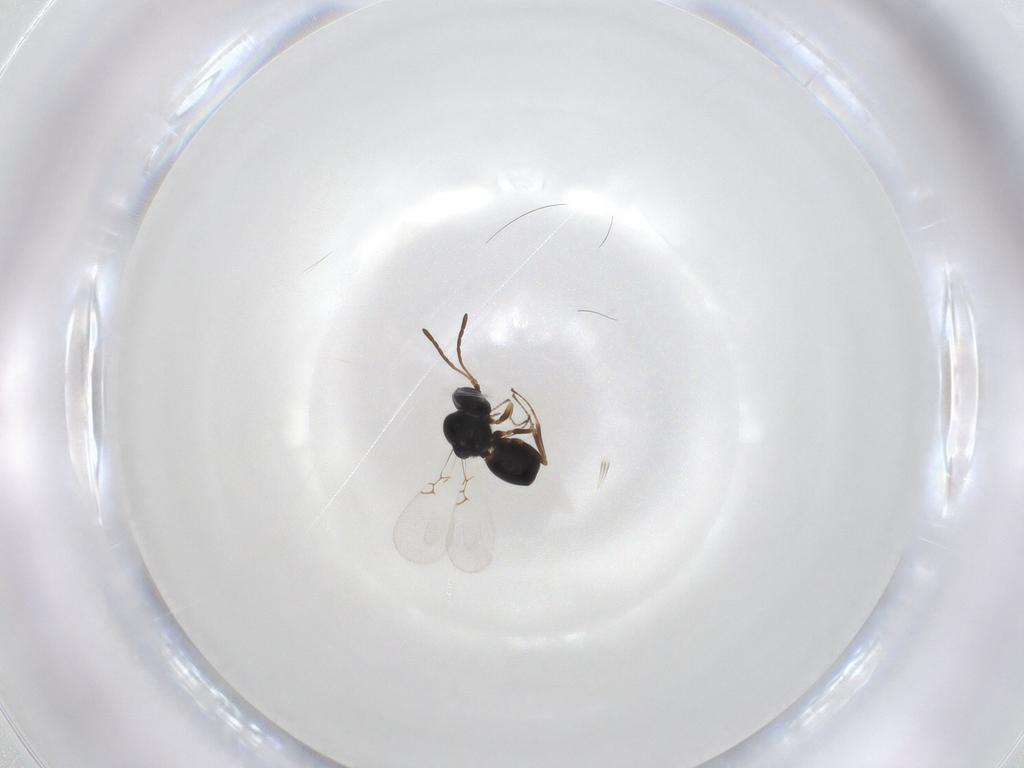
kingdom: Animalia
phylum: Arthropoda
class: Insecta
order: Hymenoptera
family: Figitidae
